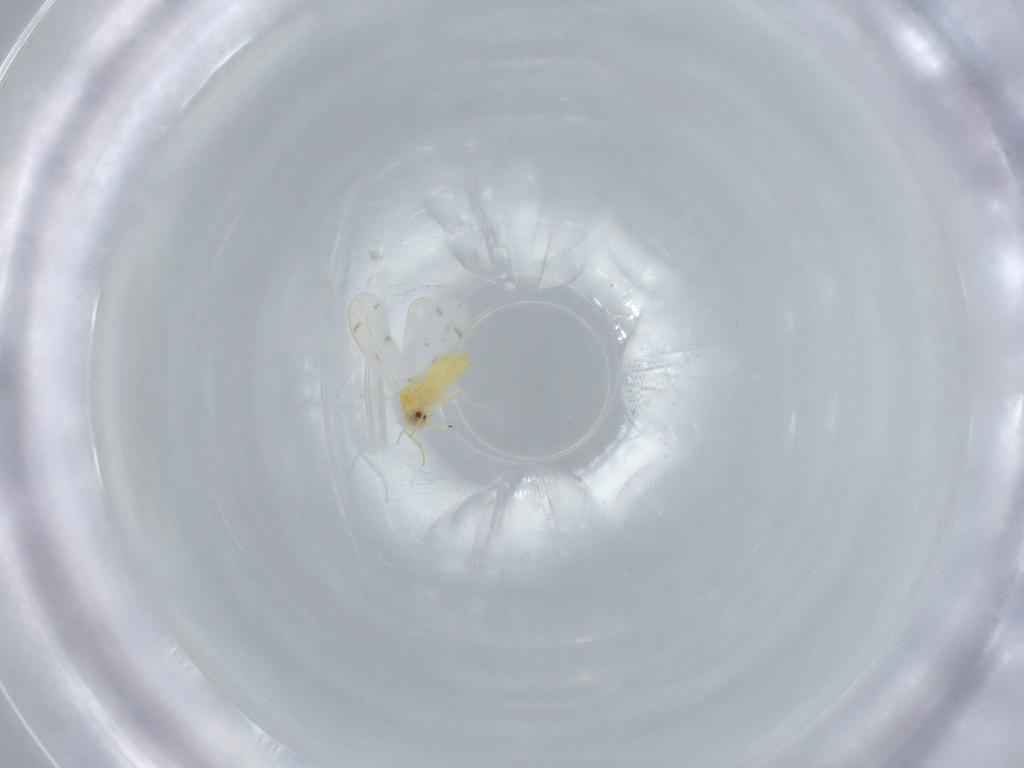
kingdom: Animalia
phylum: Arthropoda
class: Insecta
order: Hemiptera
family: Aleyrodidae
